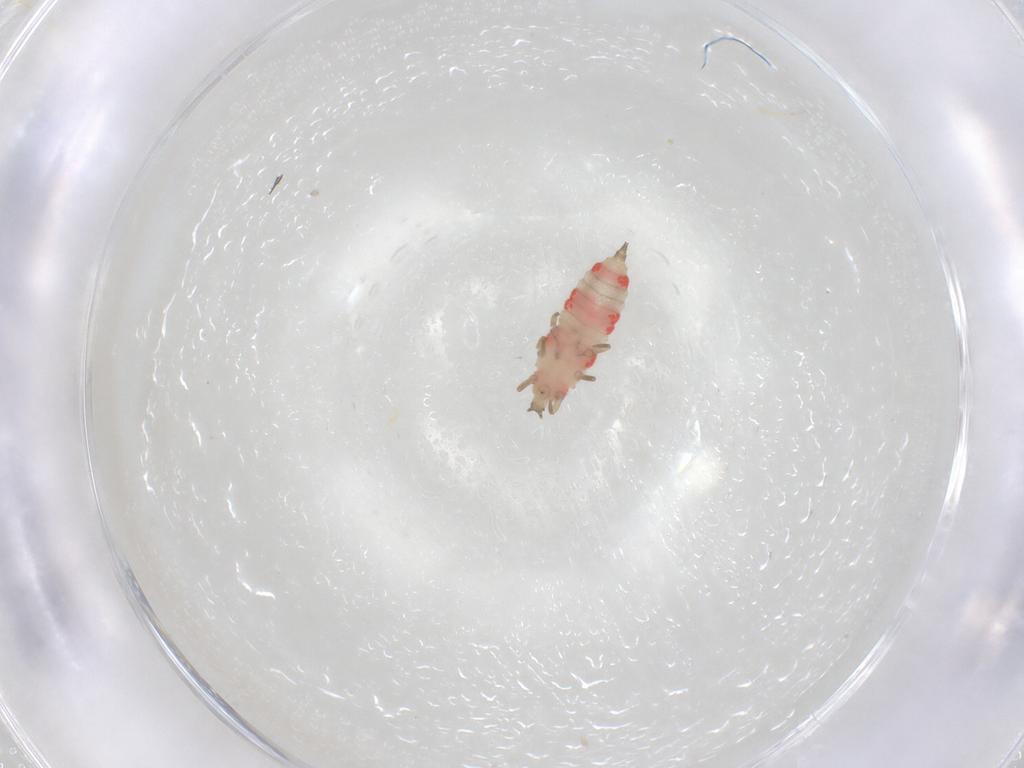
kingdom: Animalia
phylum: Arthropoda
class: Insecta
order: Thysanoptera
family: Phlaeothripidae
